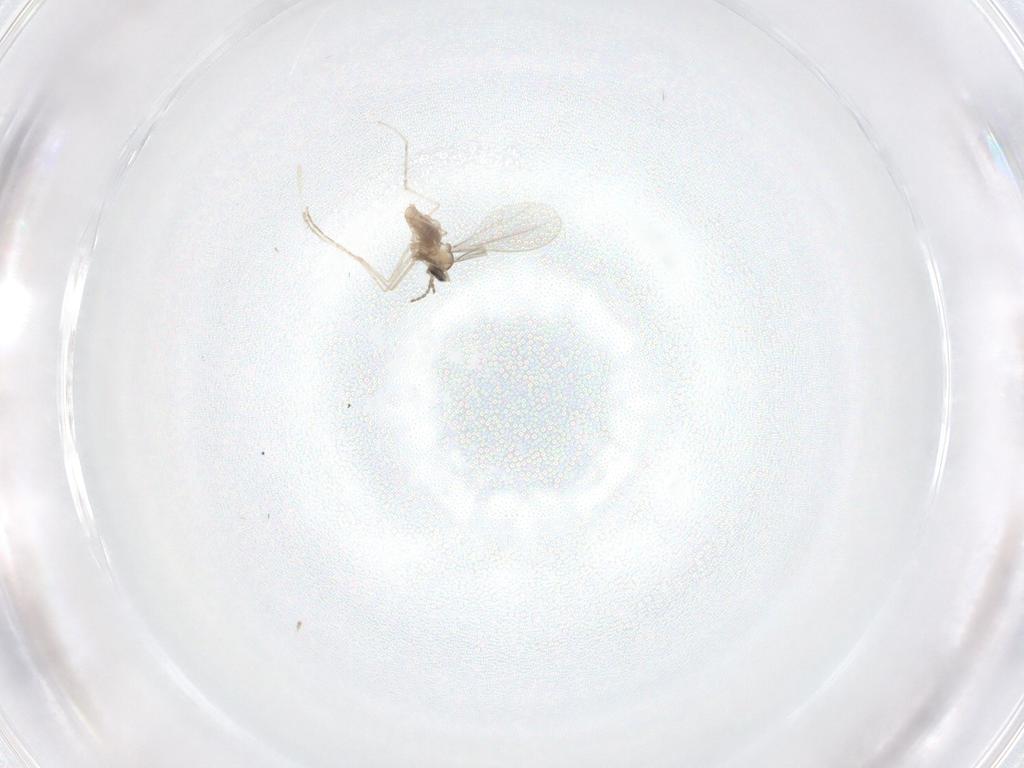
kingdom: Animalia
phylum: Arthropoda
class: Insecta
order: Diptera
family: Cecidomyiidae
